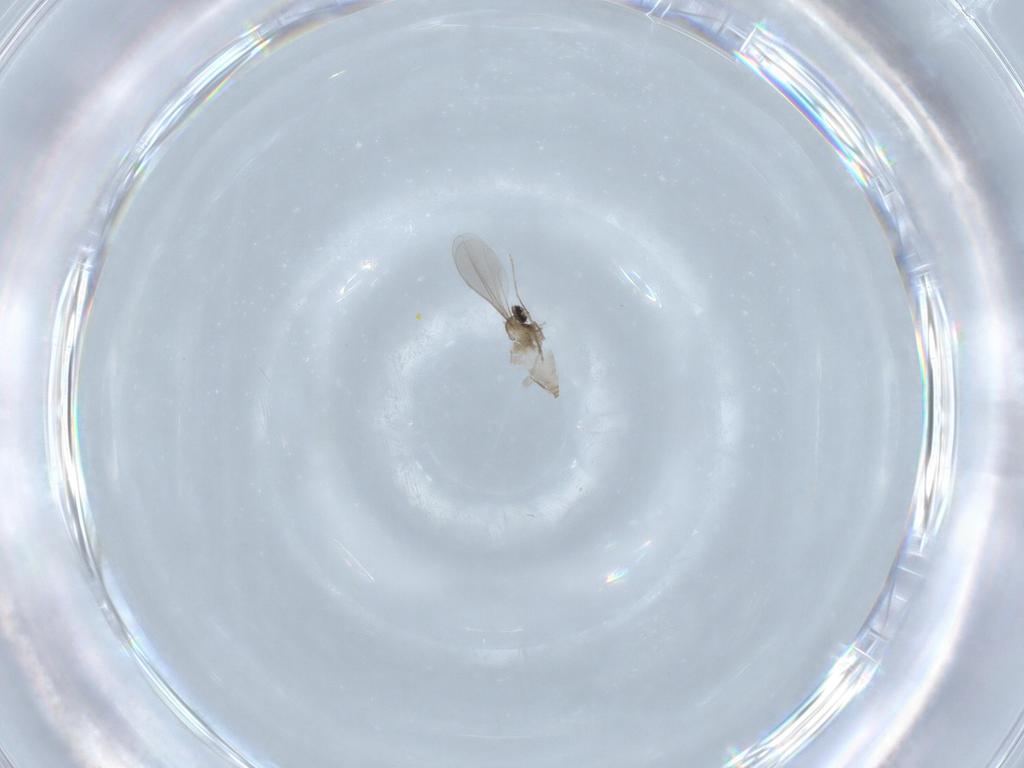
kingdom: Animalia
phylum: Arthropoda
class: Insecta
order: Diptera
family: Cecidomyiidae
